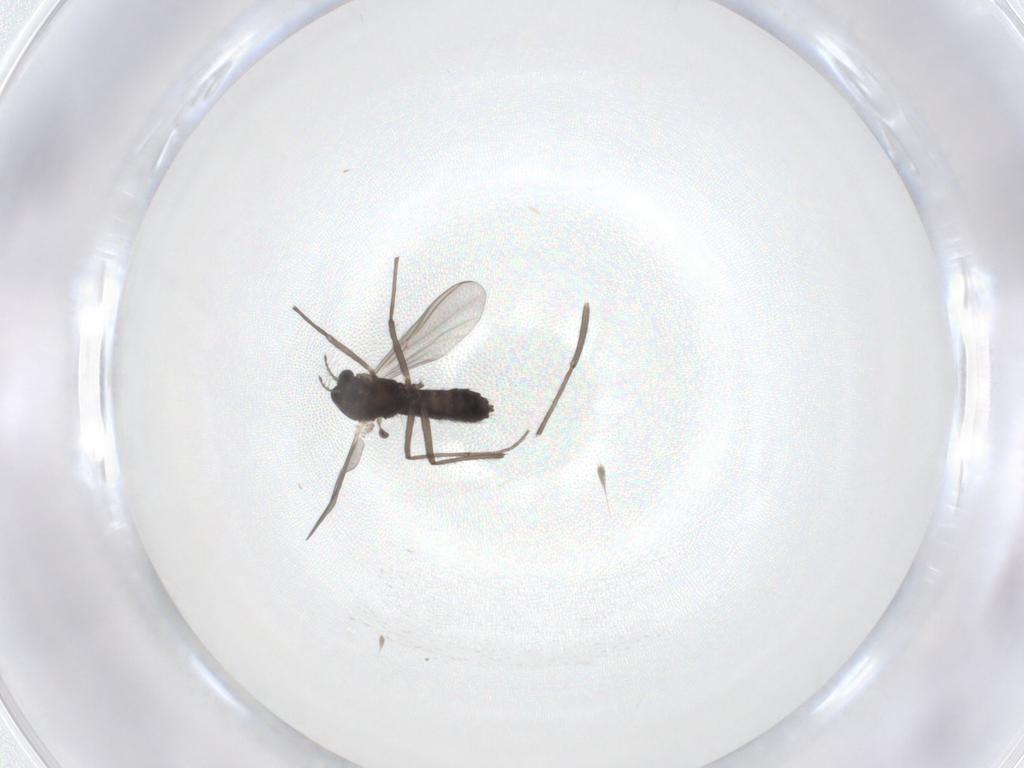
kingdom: Animalia
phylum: Arthropoda
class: Insecta
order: Diptera
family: Chironomidae
